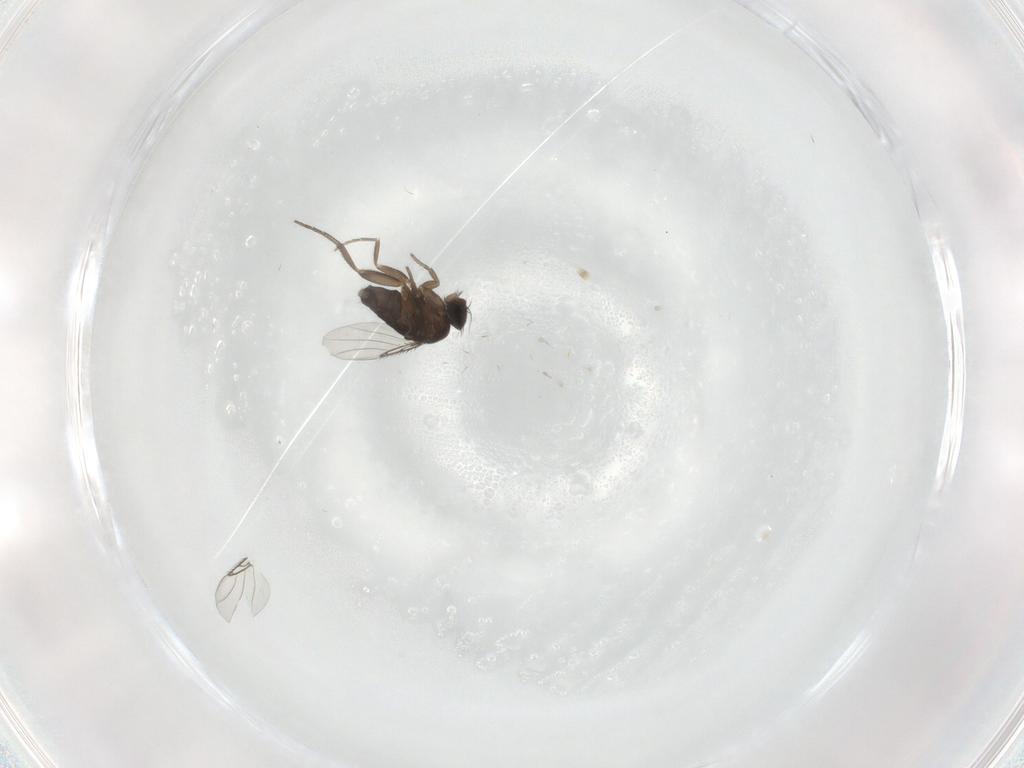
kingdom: Animalia
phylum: Arthropoda
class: Insecta
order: Diptera
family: Phoridae
